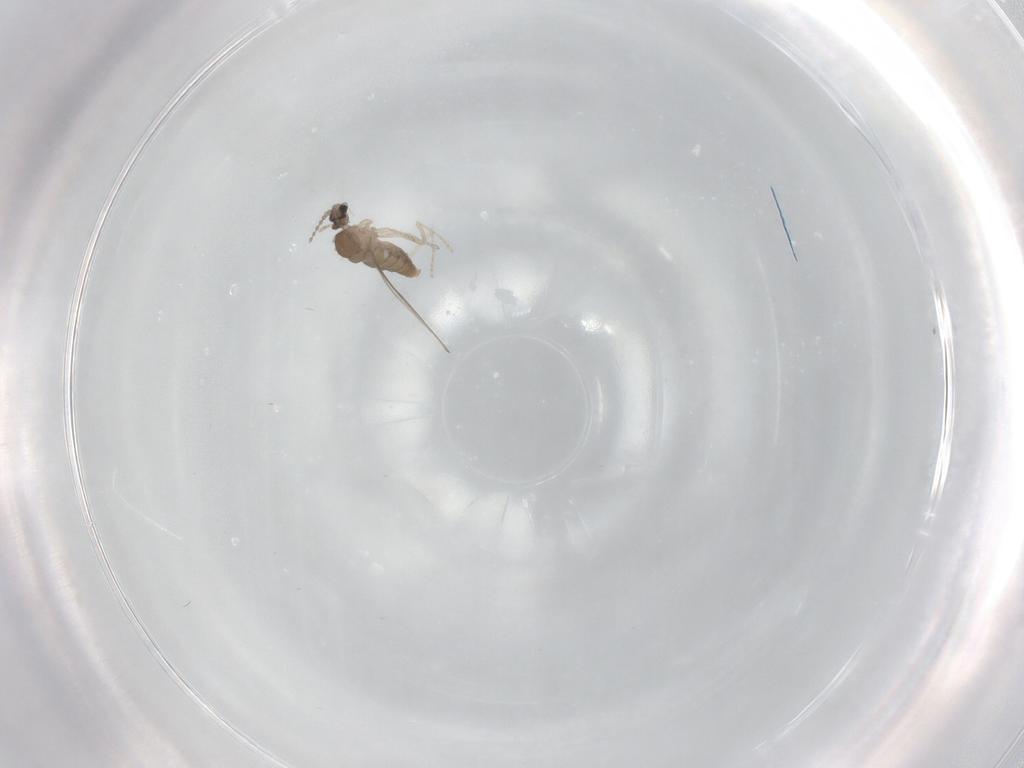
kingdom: Animalia
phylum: Arthropoda
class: Insecta
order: Diptera
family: Cecidomyiidae
